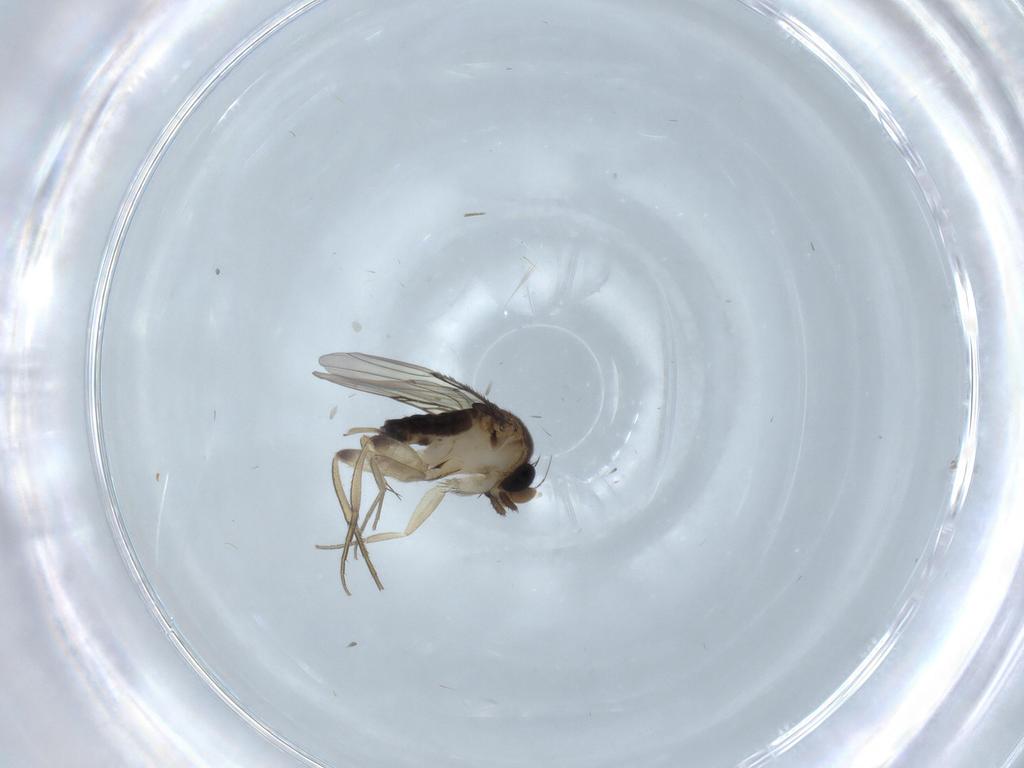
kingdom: Animalia
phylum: Arthropoda
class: Insecta
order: Diptera
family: Phoridae
